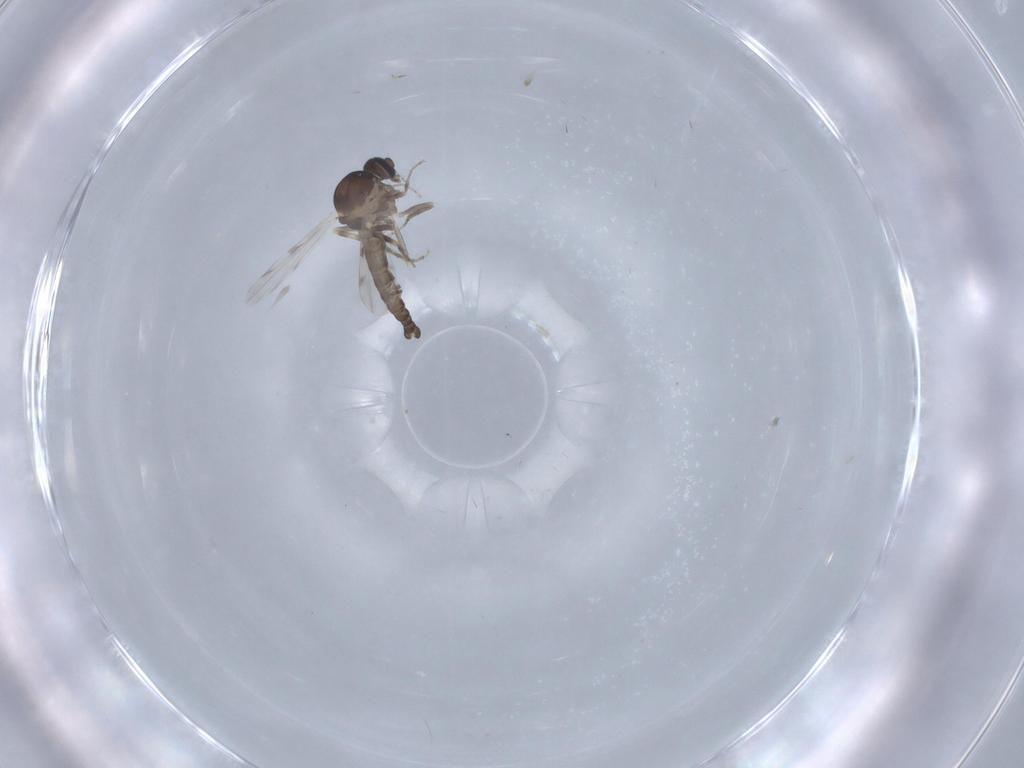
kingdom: Animalia
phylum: Arthropoda
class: Insecta
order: Diptera
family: Ceratopogonidae
